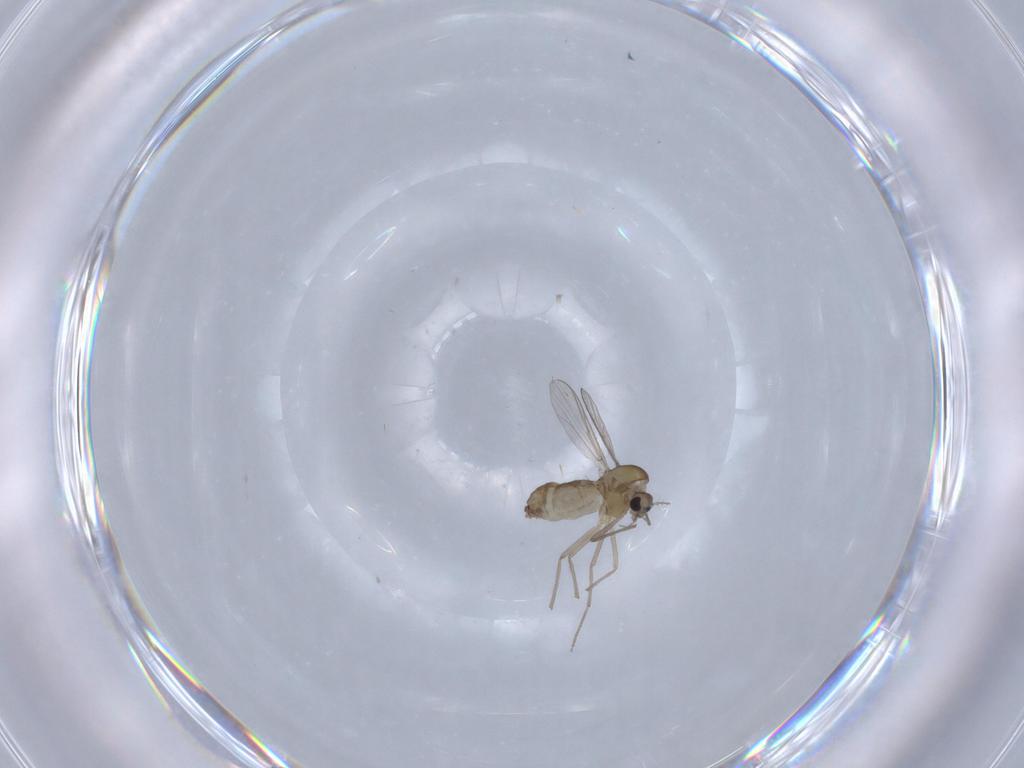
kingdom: Animalia
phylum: Arthropoda
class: Insecta
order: Diptera
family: Chironomidae
